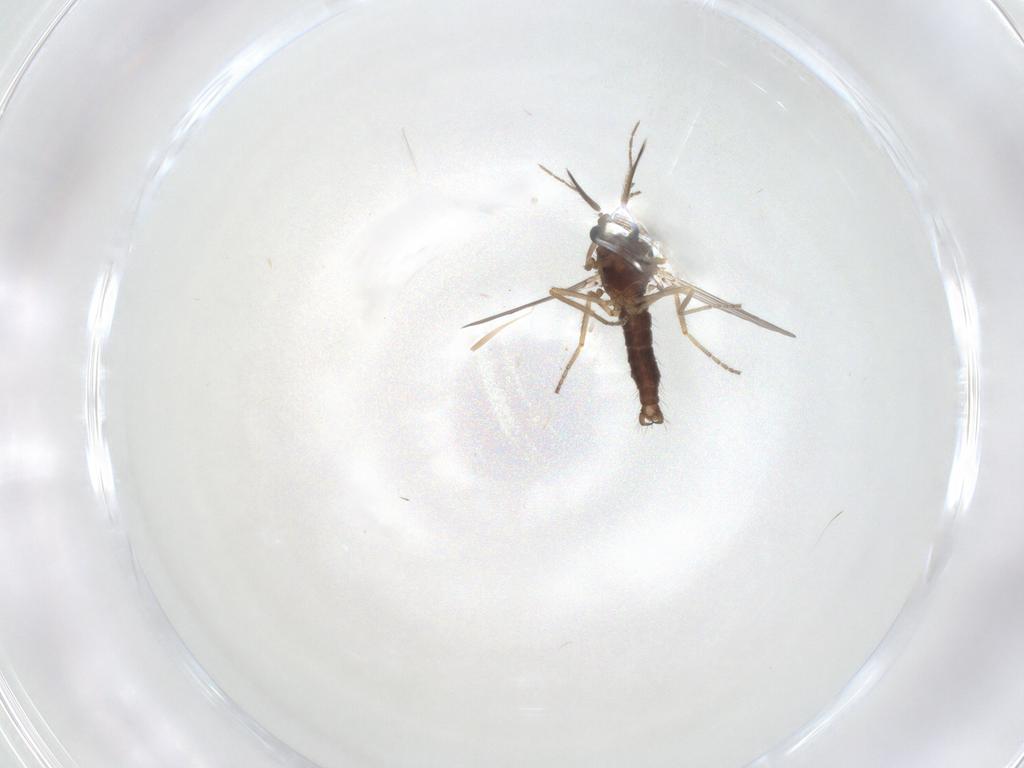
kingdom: Animalia
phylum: Arthropoda
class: Insecta
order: Diptera
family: Ceratopogonidae
